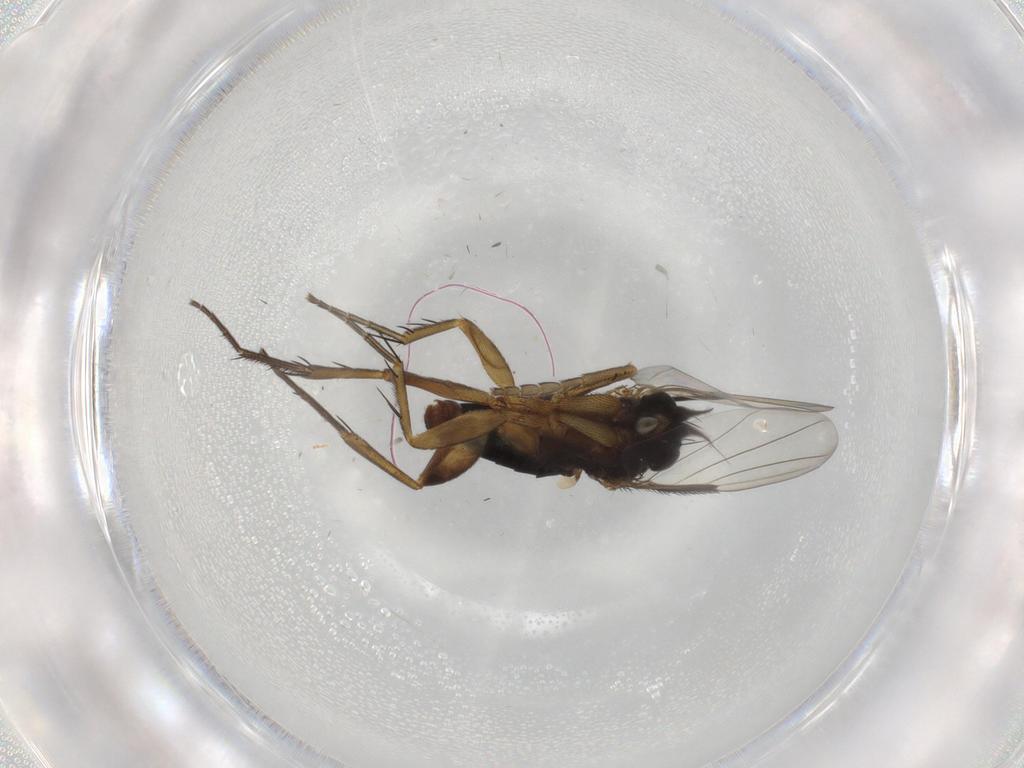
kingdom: Animalia
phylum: Arthropoda
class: Insecta
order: Diptera
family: Phoridae
